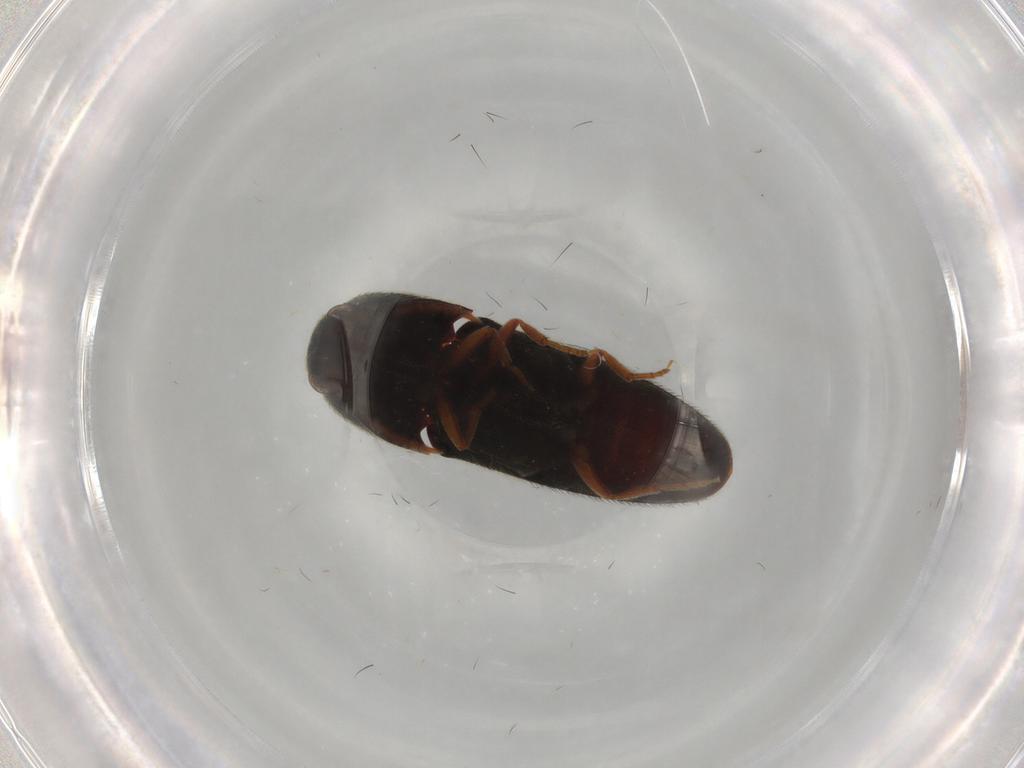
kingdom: Animalia
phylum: Arthropoda
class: Insecta
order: Coleoptera
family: Eucnemidae
